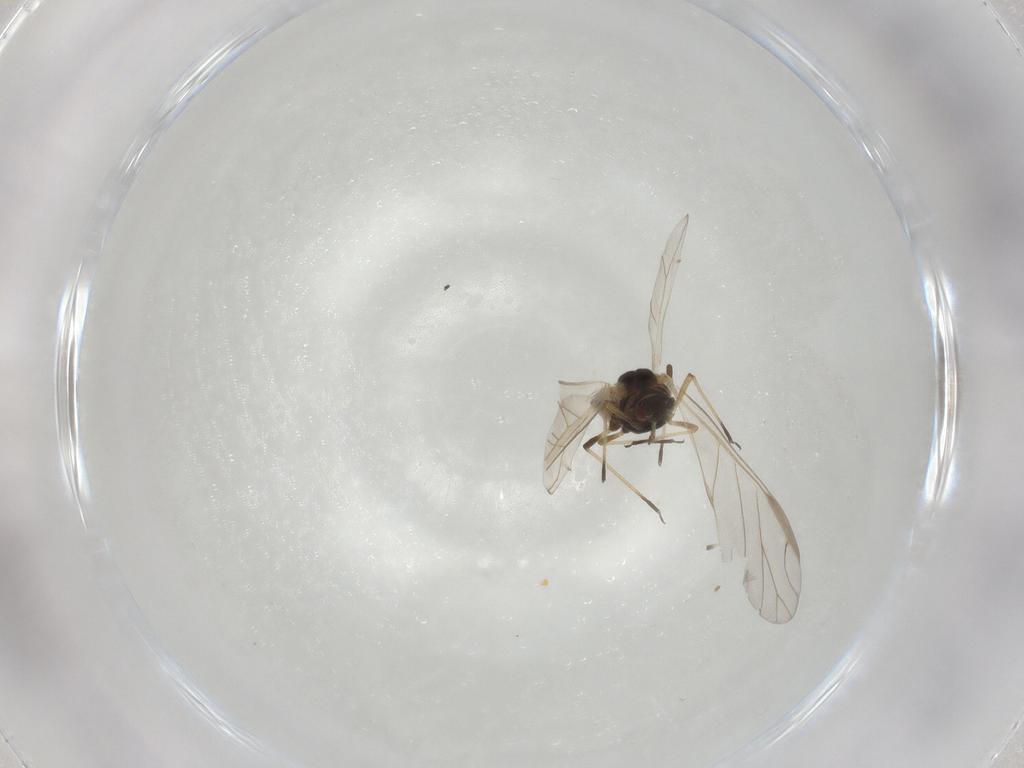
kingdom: Animalia
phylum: Arthropoda
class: Insecta
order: Hemiptera
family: Aphididae
